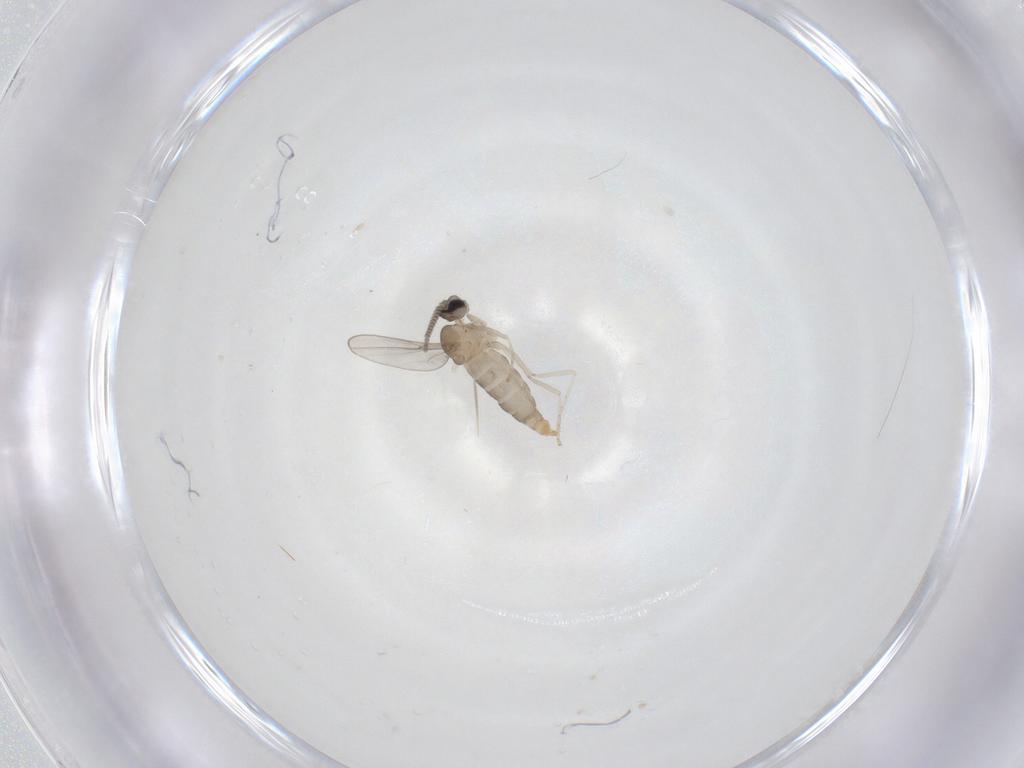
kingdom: Animalia
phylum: Arthropoda
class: Insecta
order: Diptera
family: Cecidomyiidae
